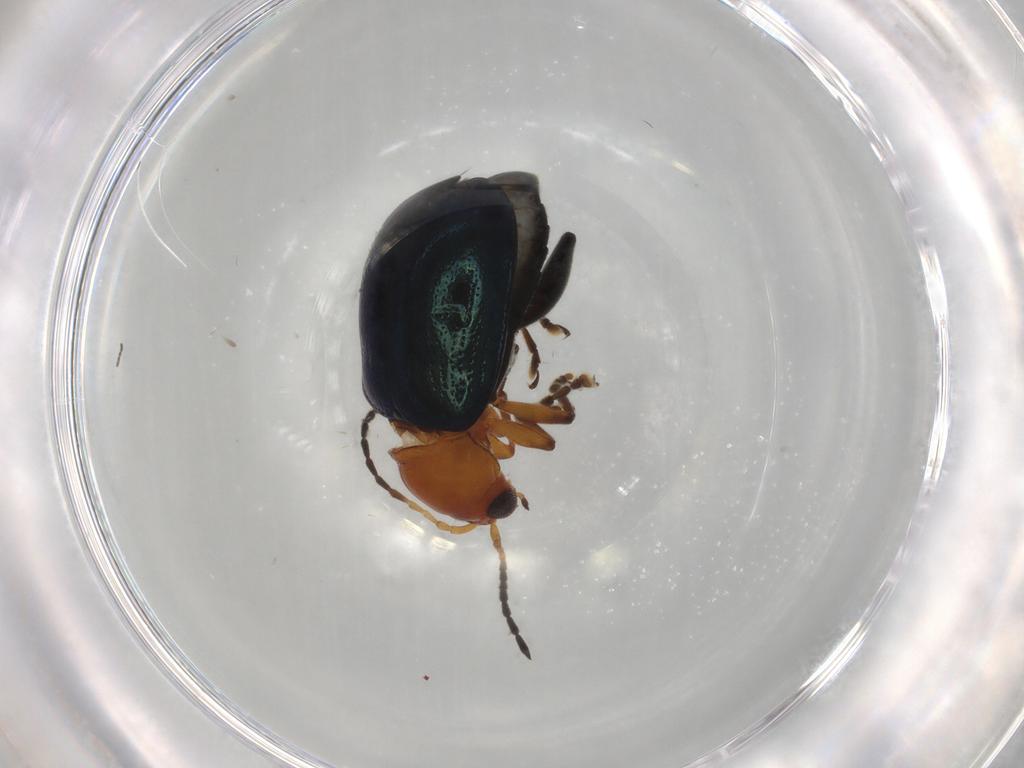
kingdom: Animalia
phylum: Arthropoda
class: Insecta
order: Coleoptera
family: Chrysomelidae
